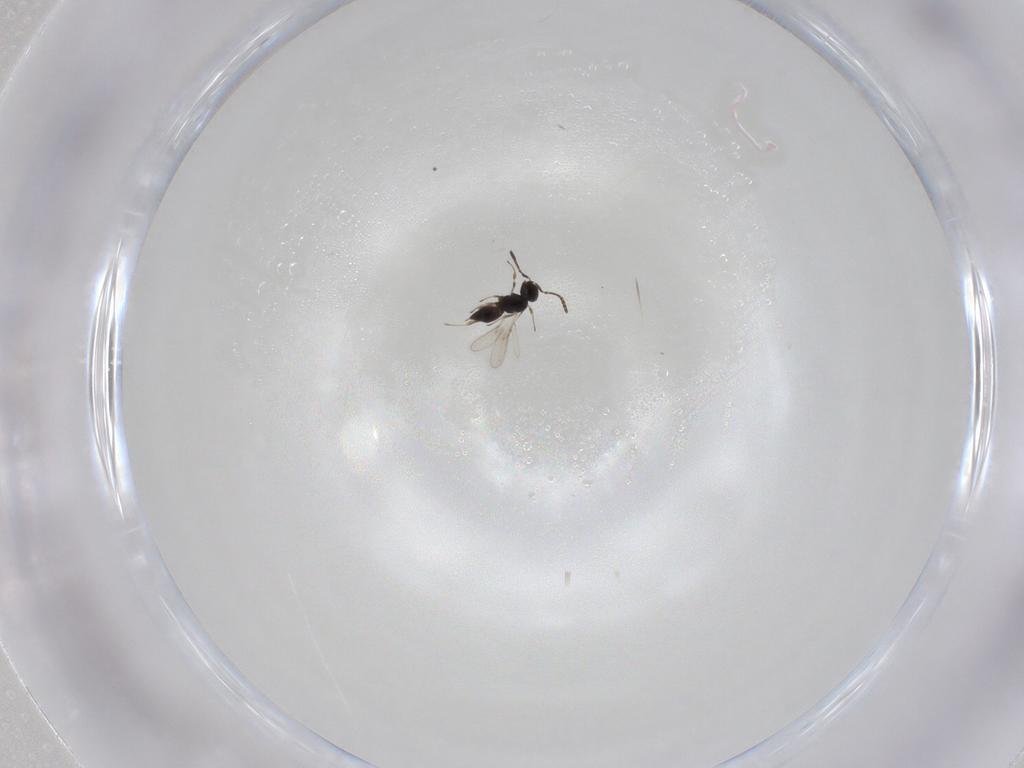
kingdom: Animalia
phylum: Arthropoda
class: Insecta
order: Hymenoptera
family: Scelionidae
